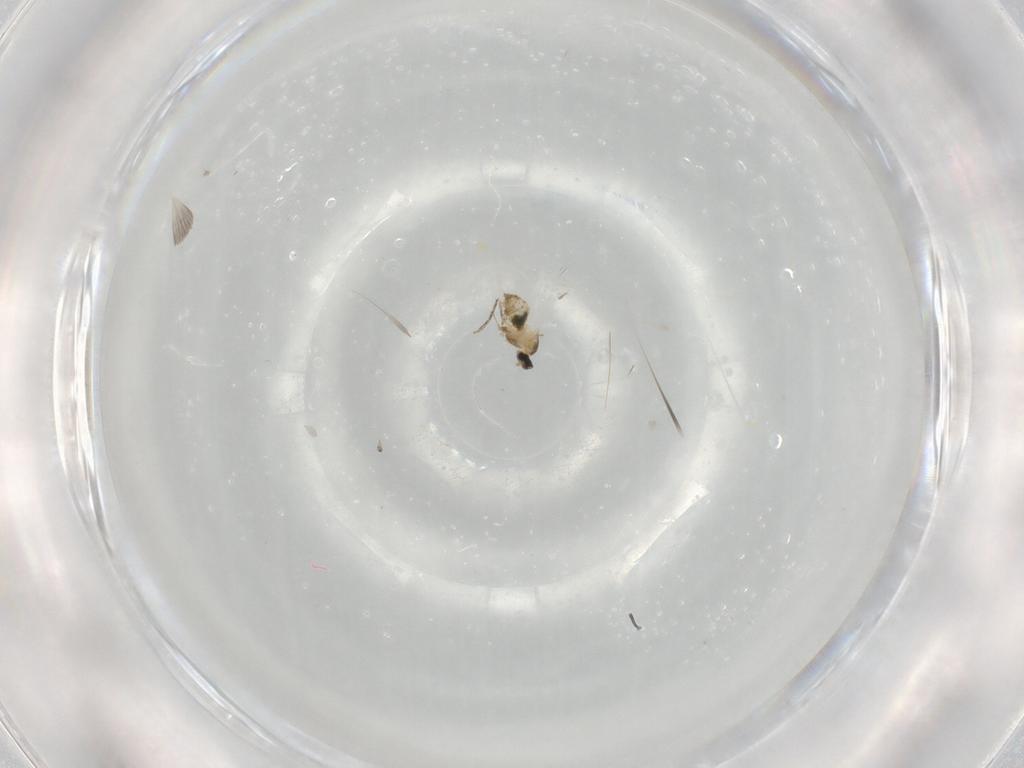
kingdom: Animalia
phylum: Arthropoda
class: Insecta
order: Diptera
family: Cecidomyiidae
